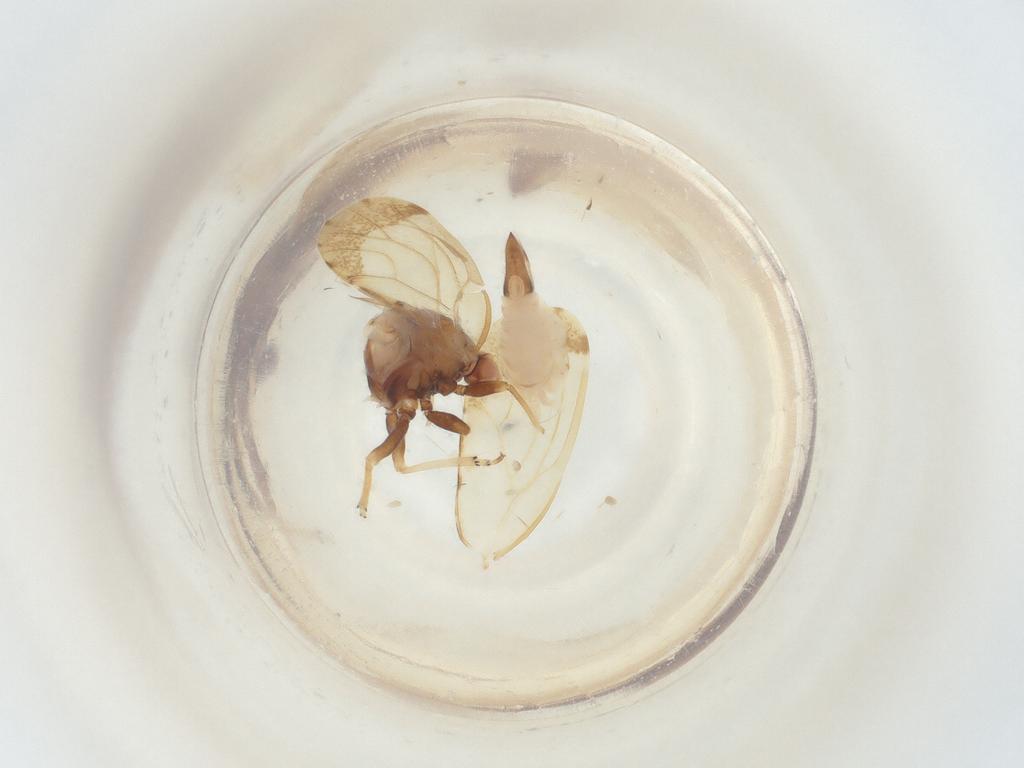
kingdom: Animalia
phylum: Arthropoda
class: Insecta
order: Hemiptera
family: Psyllidae
